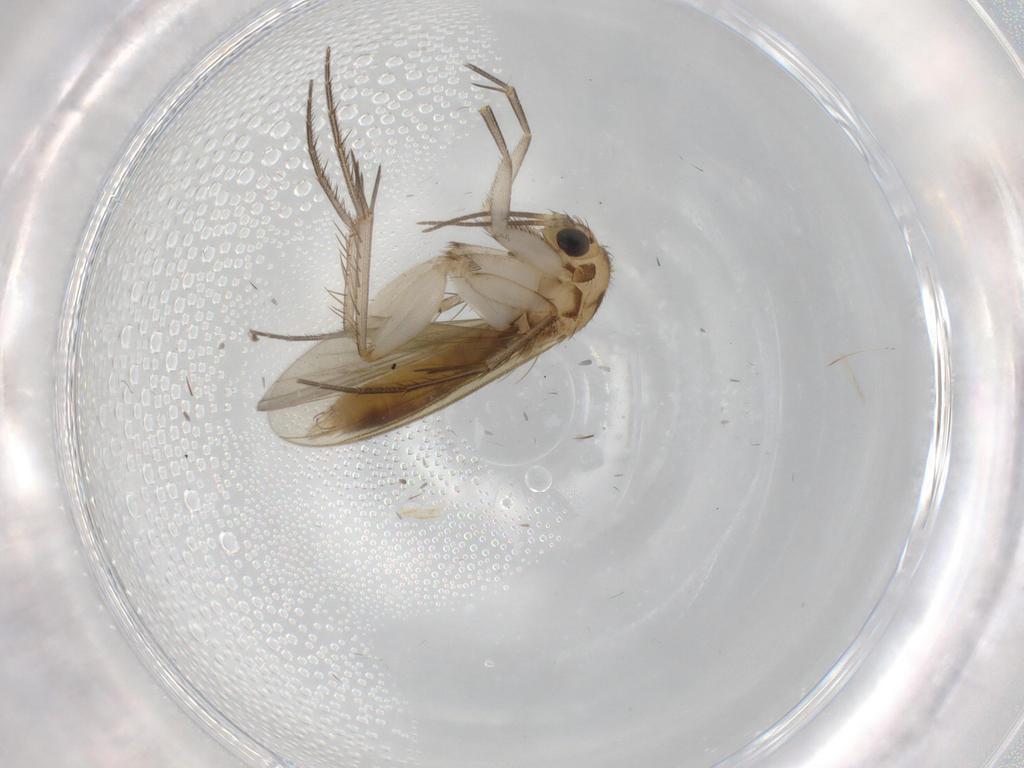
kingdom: Animalia
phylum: Arthropoda
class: Insecta
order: Diptera
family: Mycetophilidae
